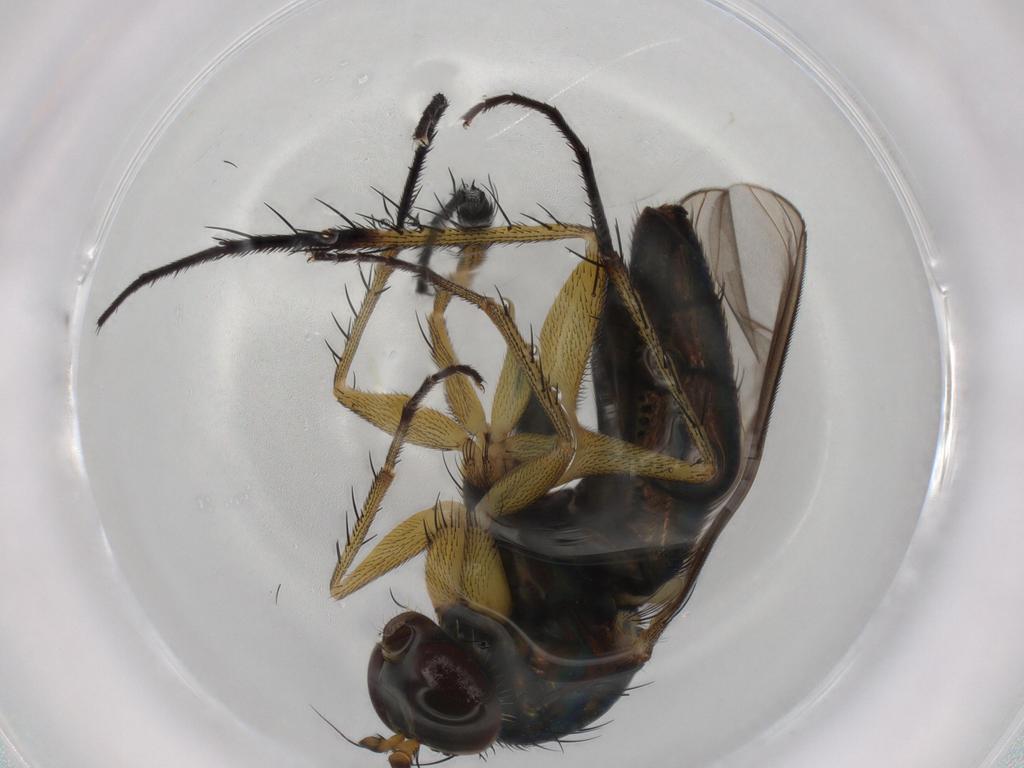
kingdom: Animalia
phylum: Arthropoda
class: Insecta
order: Diptera
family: Dolichopodidae
